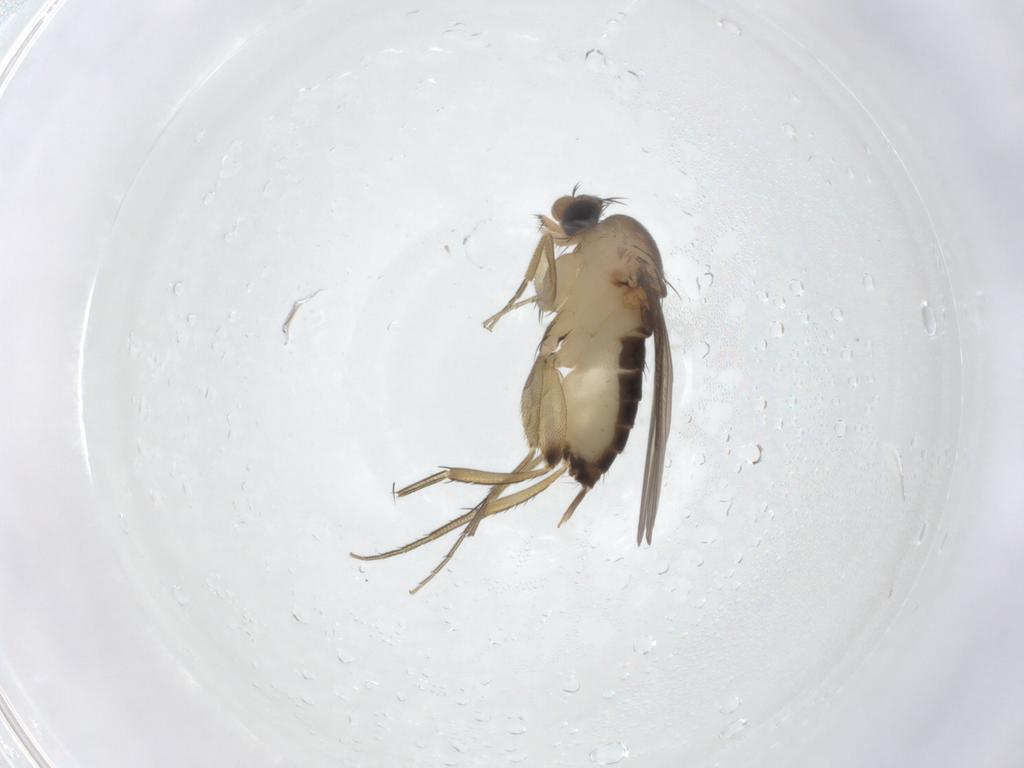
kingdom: Animalia
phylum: Arthropoda
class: Insecta
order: Diptera
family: Phoridae
